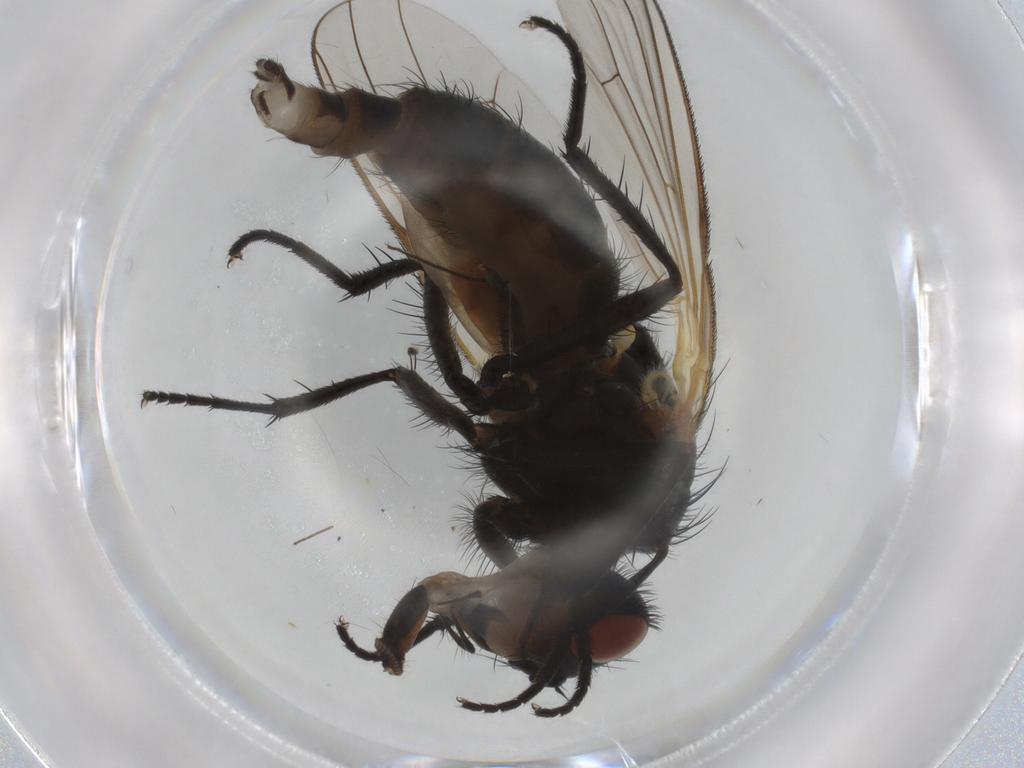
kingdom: Animalia
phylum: Arthropoda
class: Insecta
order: Diptera
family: Anthomyiidae
